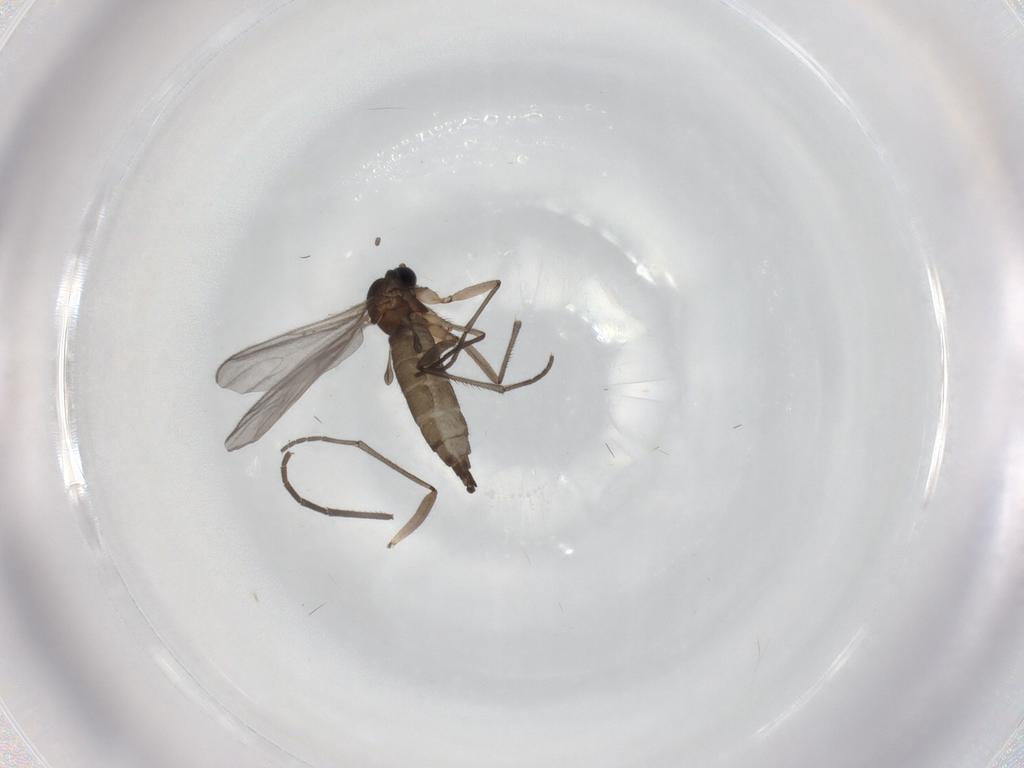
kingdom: Animalia
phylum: Arthropoda
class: Insecta
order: Diptera
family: Sciaridae
